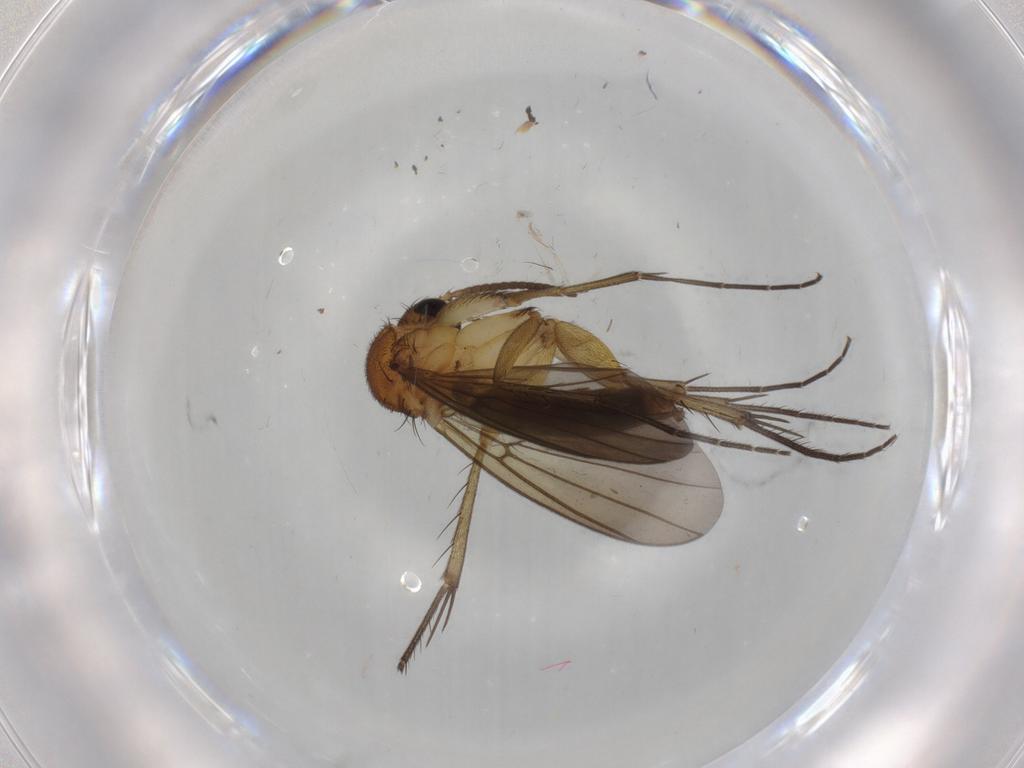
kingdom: Animalia
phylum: Arthropoda
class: Insecta
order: Diptera
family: Mycetophilidae
